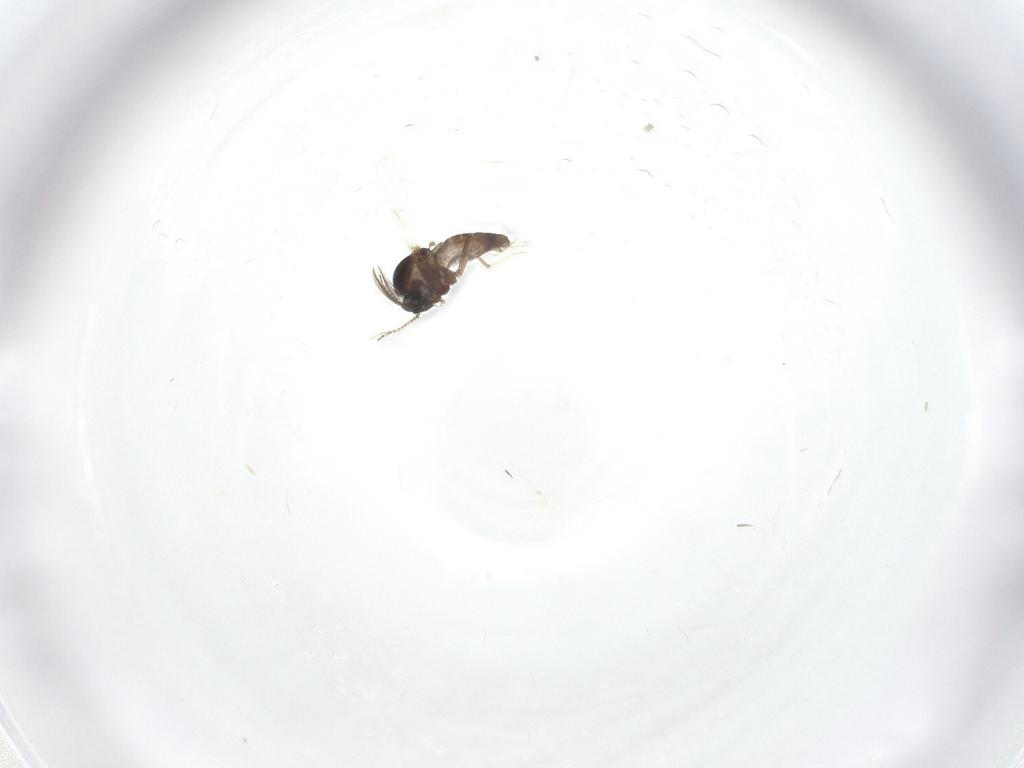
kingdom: Animalia
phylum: Arthropoda
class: Insecta
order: Diptera
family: Sciaridae
